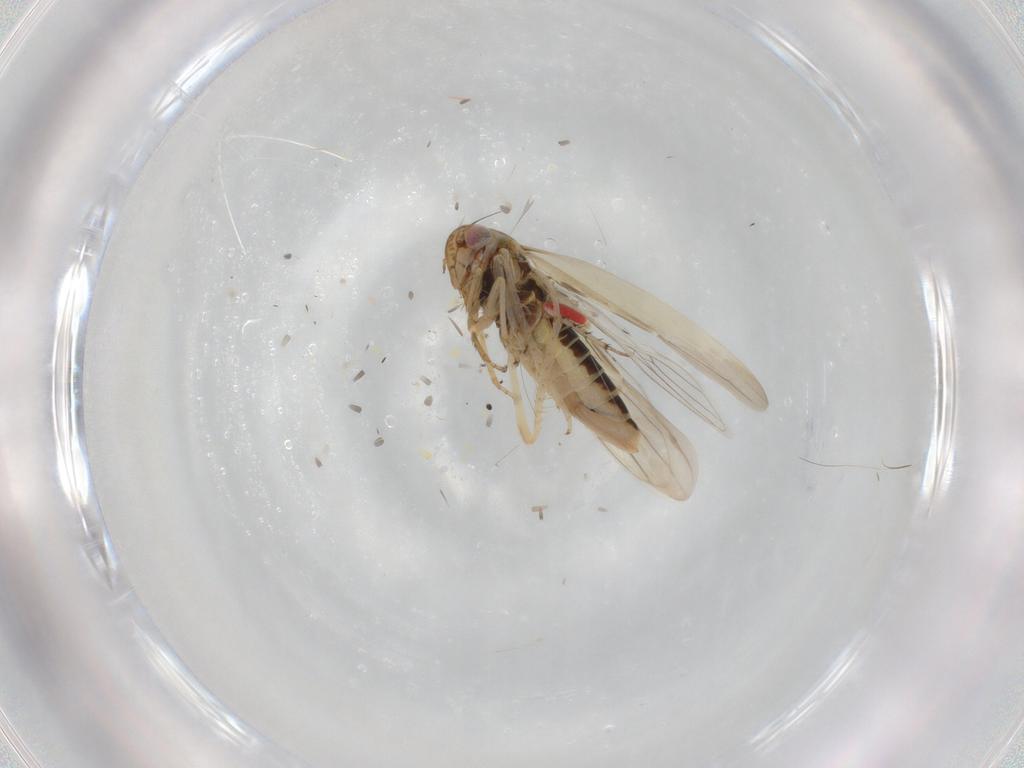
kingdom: Animalia
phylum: Arthropoda
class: Insecta
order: Hemiptera
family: Cicadellidae
